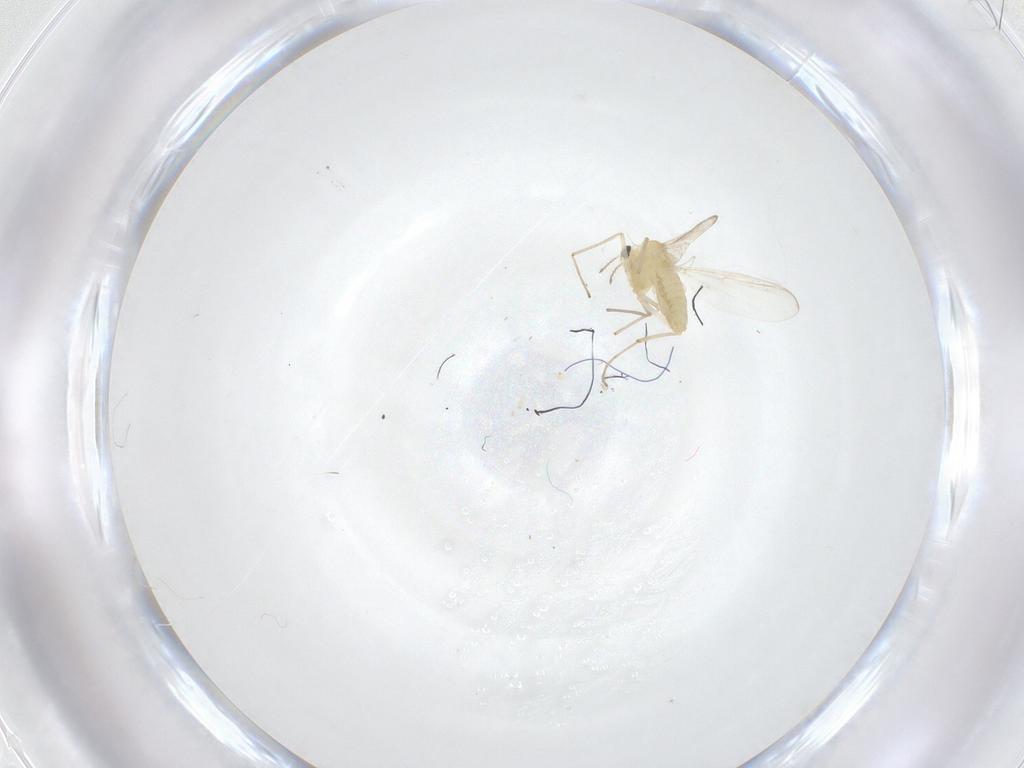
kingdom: Animalia
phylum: Arthropoda
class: Insecta
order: Diptera
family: Chironomidae
